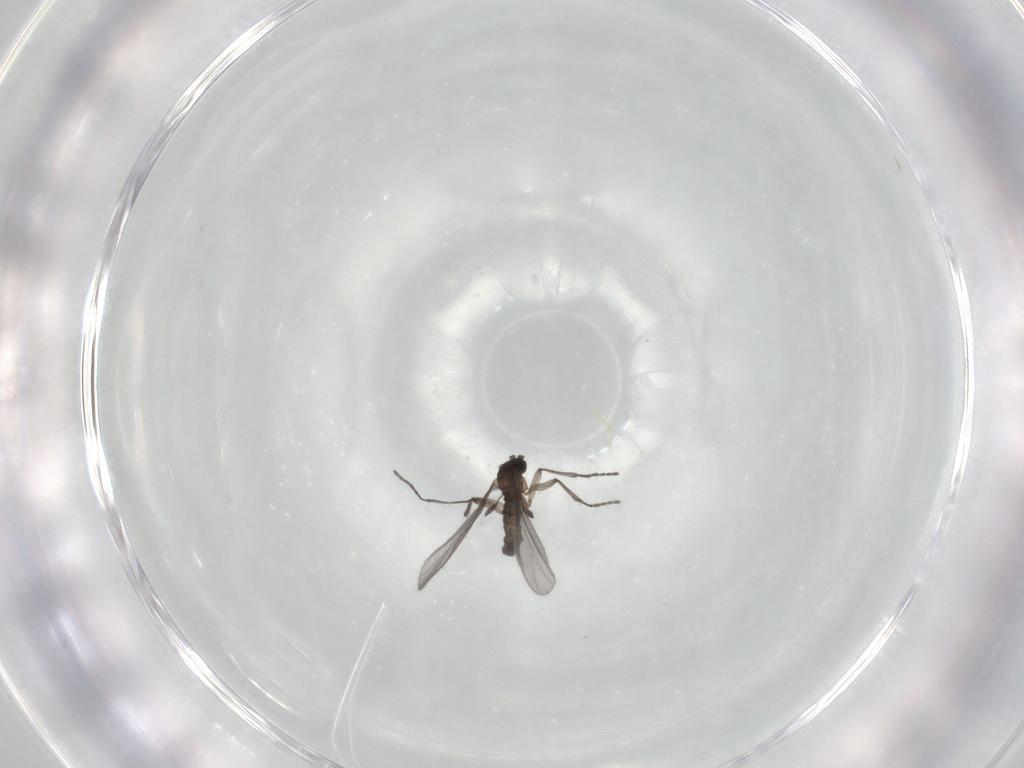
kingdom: Animalia
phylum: Arthropoda
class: Insecta
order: Diptera
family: Sciaridae
